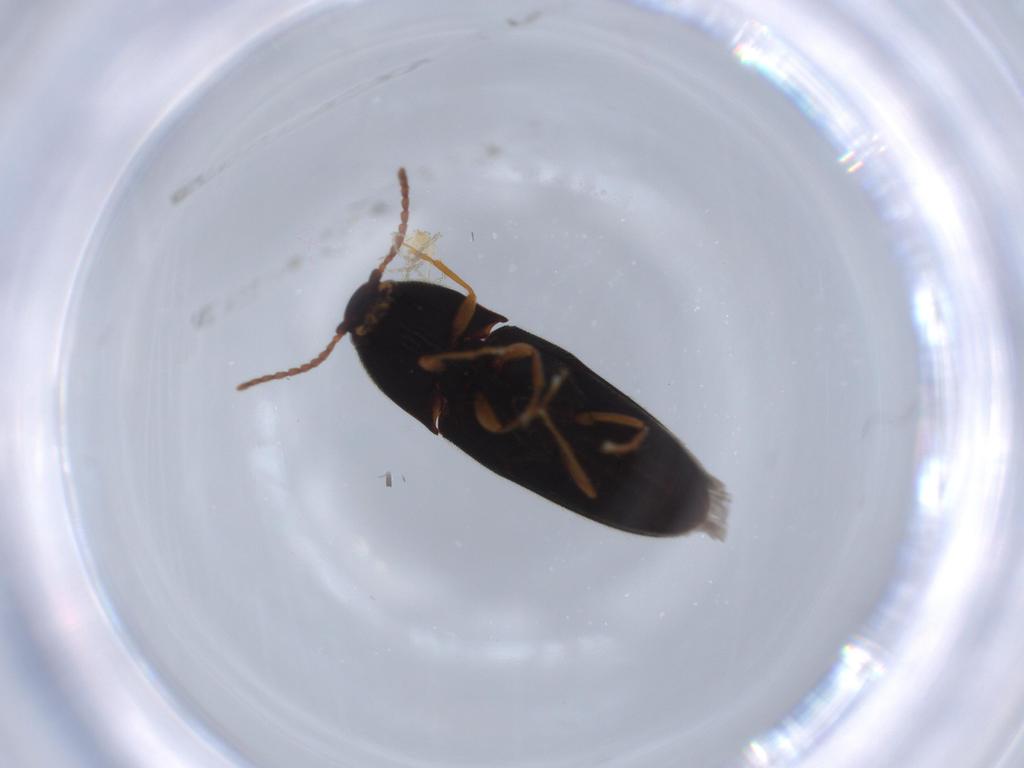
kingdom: Animalia
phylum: Arthropoda
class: Insecta
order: Coleoptera
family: Elateridae
